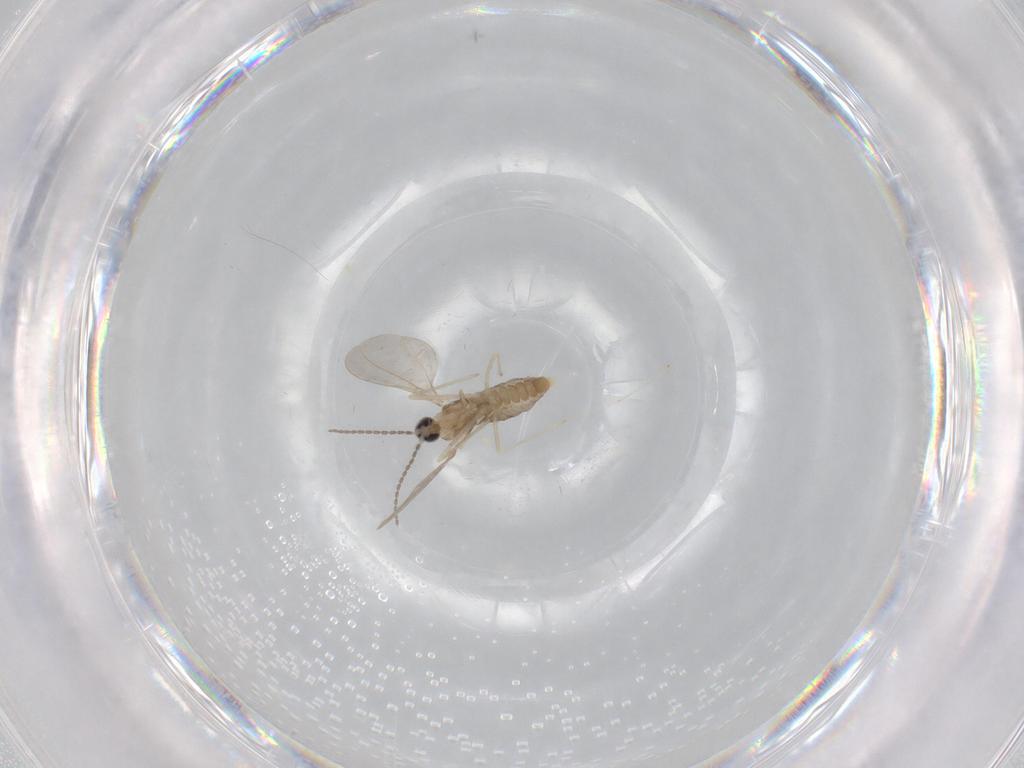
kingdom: Animalia
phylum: Arthropoda
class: Insecta
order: Diptera
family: Cecidomyiidae
